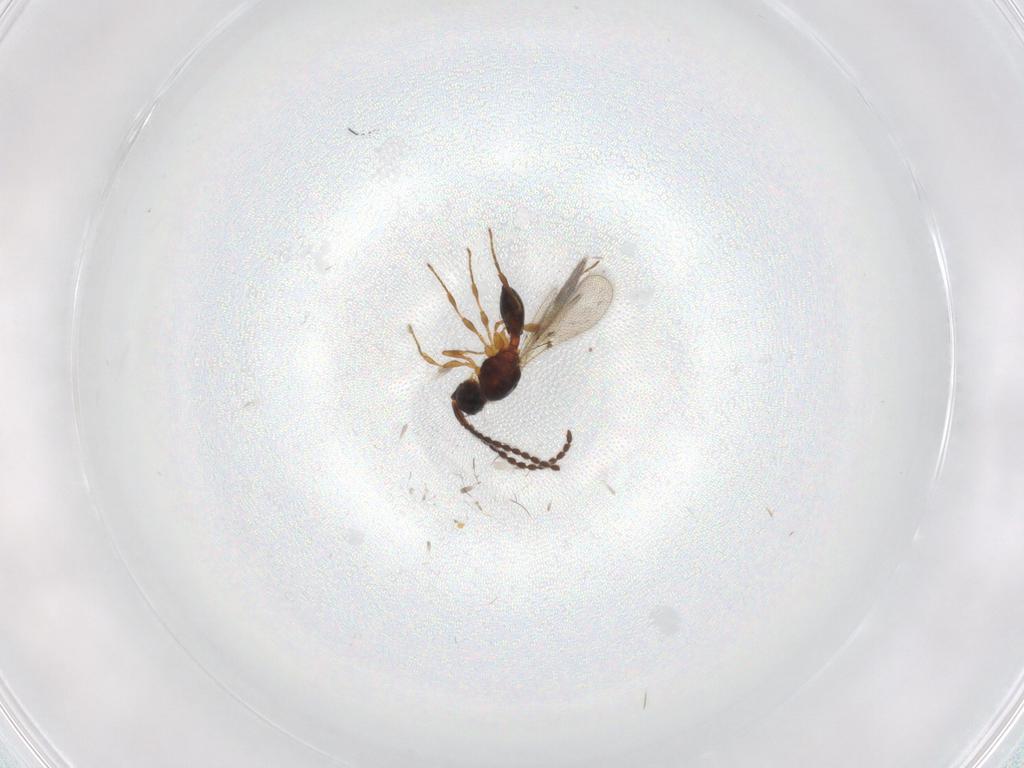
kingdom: Animalia
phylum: Arthropoda
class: Insecta
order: Hymenoptera
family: Diapriidae
